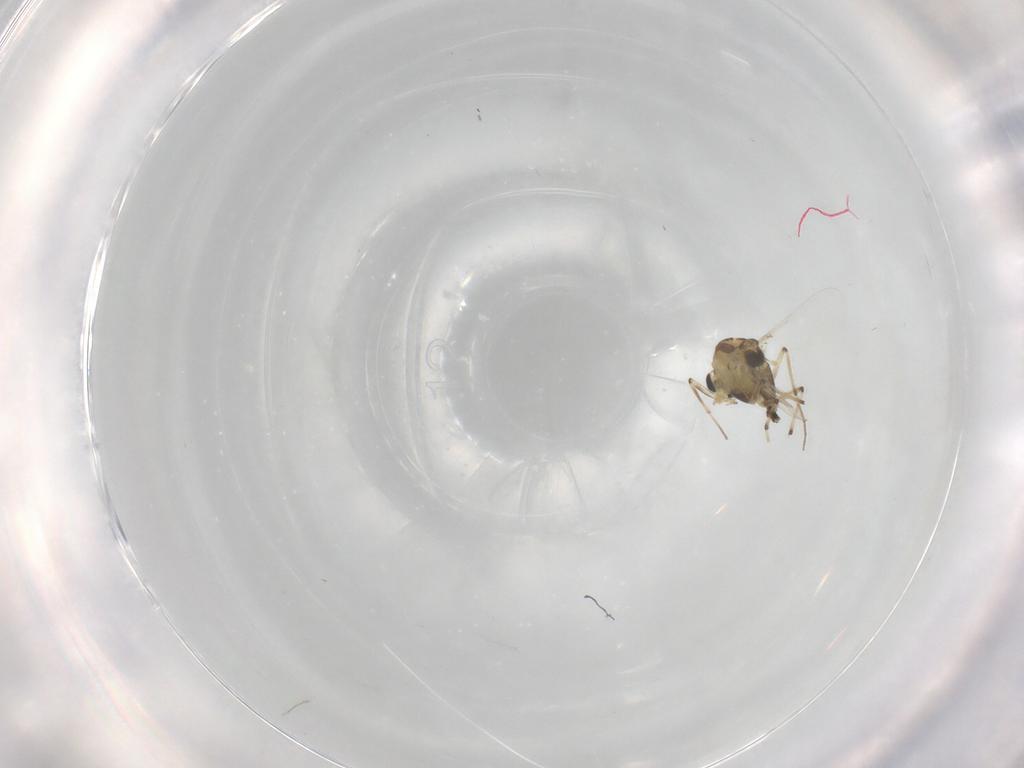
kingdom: Animalia
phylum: Arthropoda
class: Insecta
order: Diptera
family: Chironomidae
